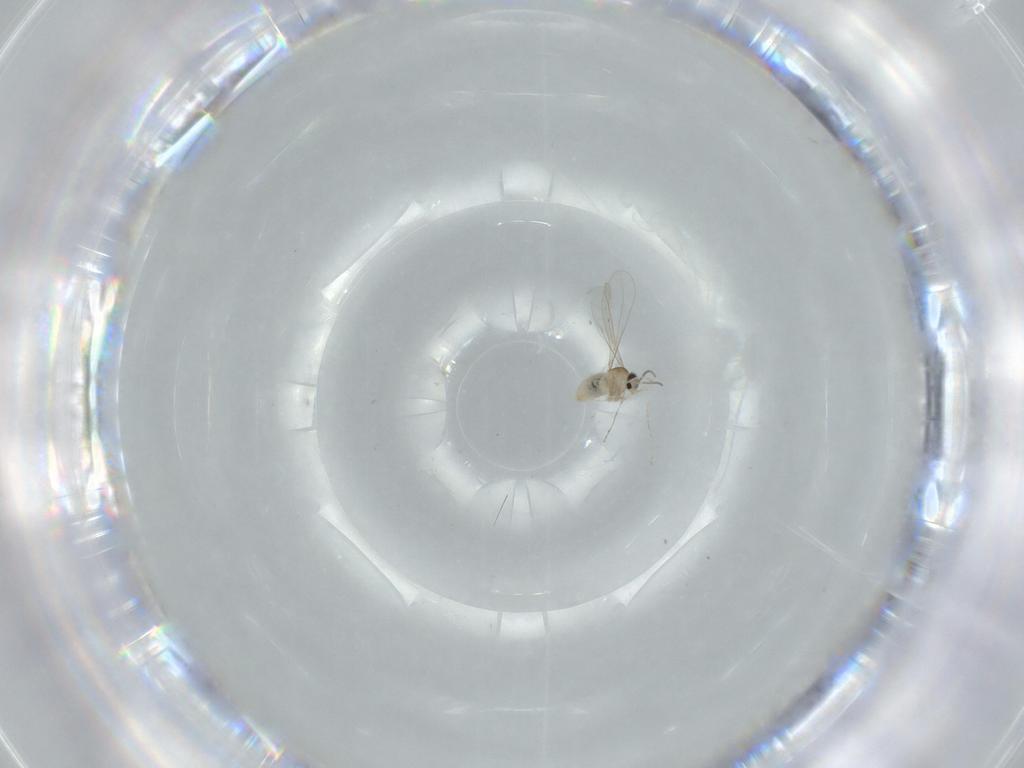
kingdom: Animalia
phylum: Arthropoda
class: Insecta
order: Diptera
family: Cecidomyiidae
